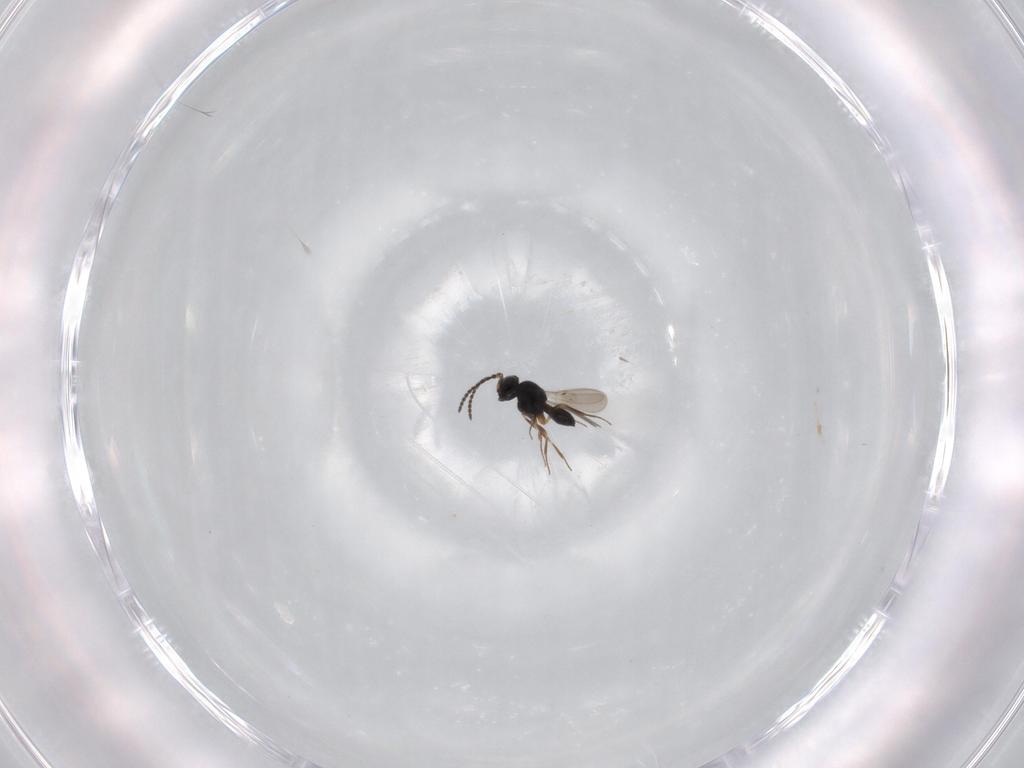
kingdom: Animalia
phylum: Arthropoda
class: Insecta
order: Hymenoptera
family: Scelionidae
